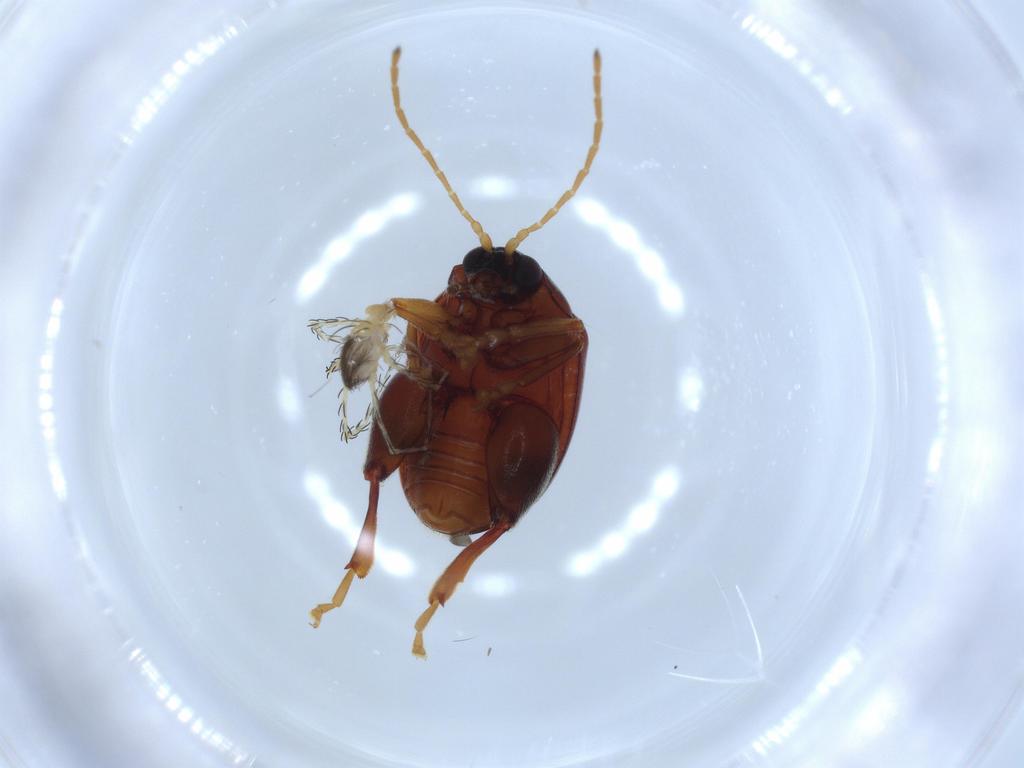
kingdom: Animalia
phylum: Arthropoda
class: Arachnida
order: Trombidiformes
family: Erythraeidae
